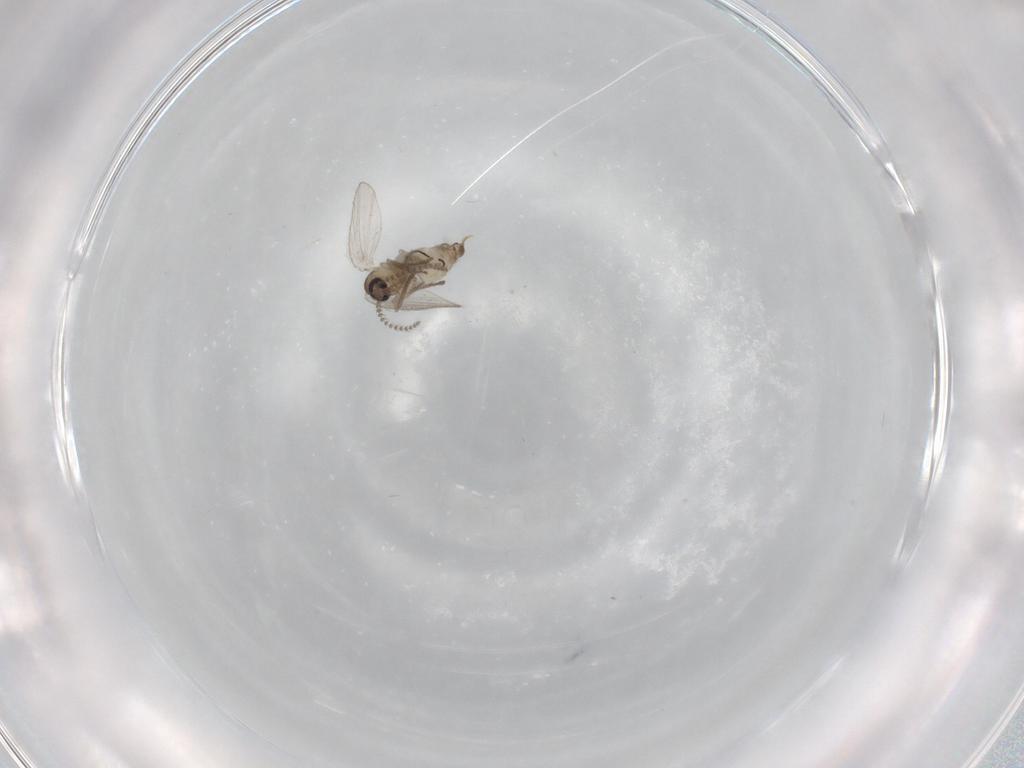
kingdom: Animalia
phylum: Arthropoda
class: Insecta
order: Diptera
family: Psychodidae
